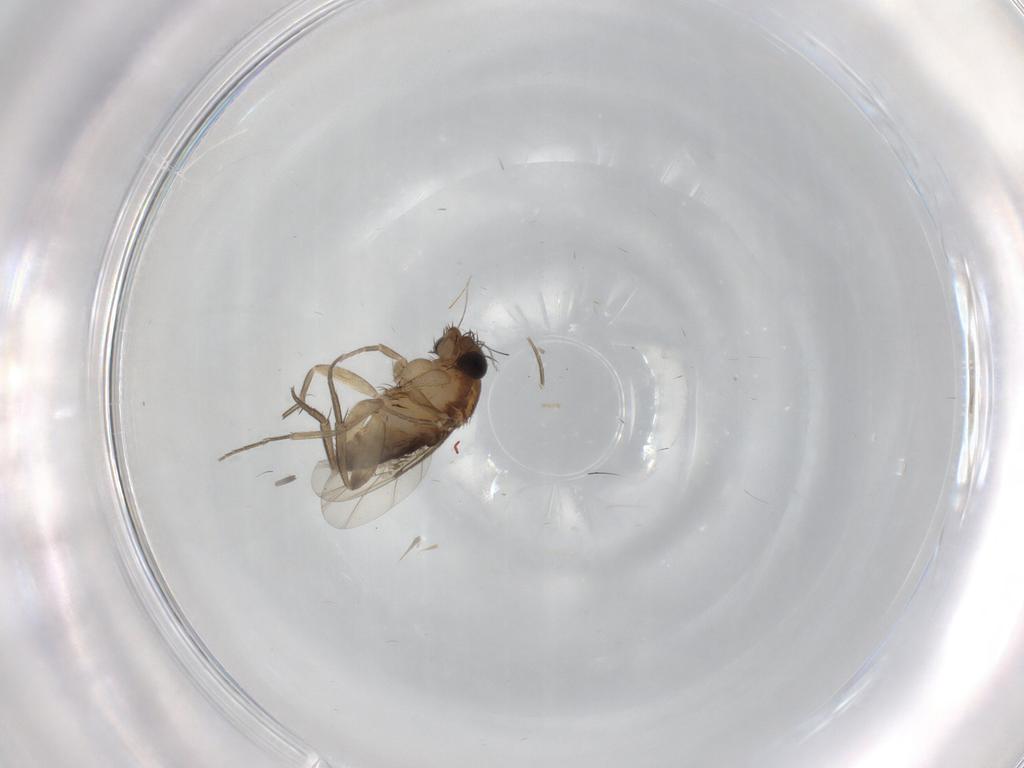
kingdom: Animalia
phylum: Arthropoda
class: Insecta
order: Diptera
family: Phoridae
